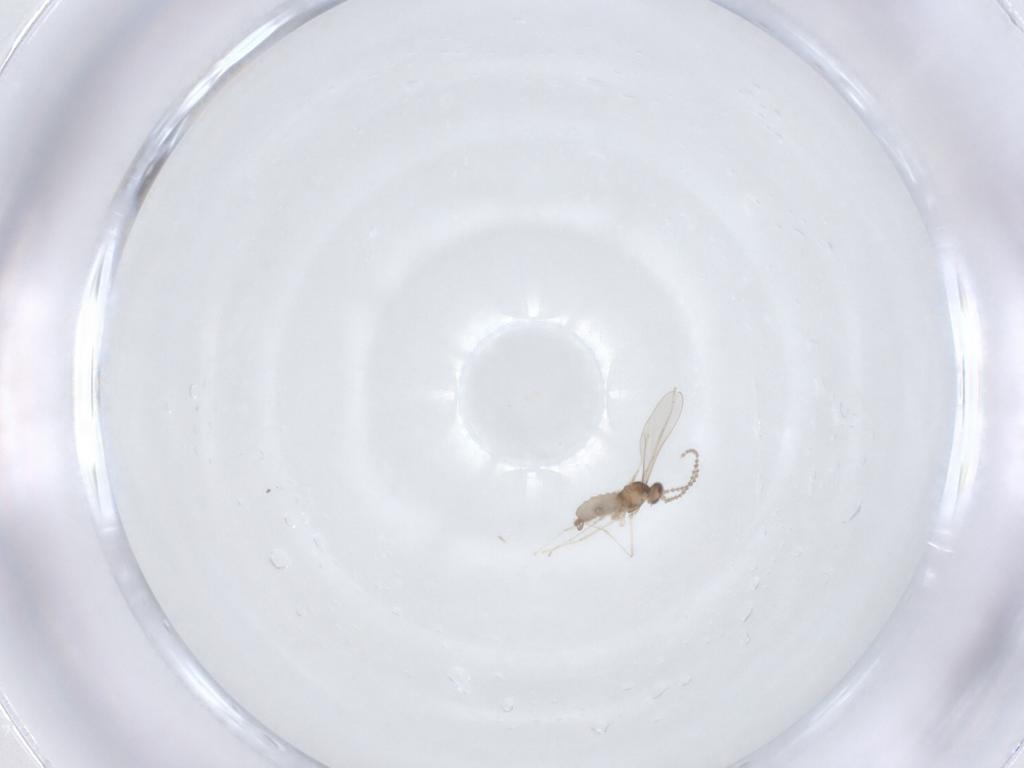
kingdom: Animalia
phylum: Arthropoda
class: Insecta
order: Diptera
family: Cecidomyiidae
